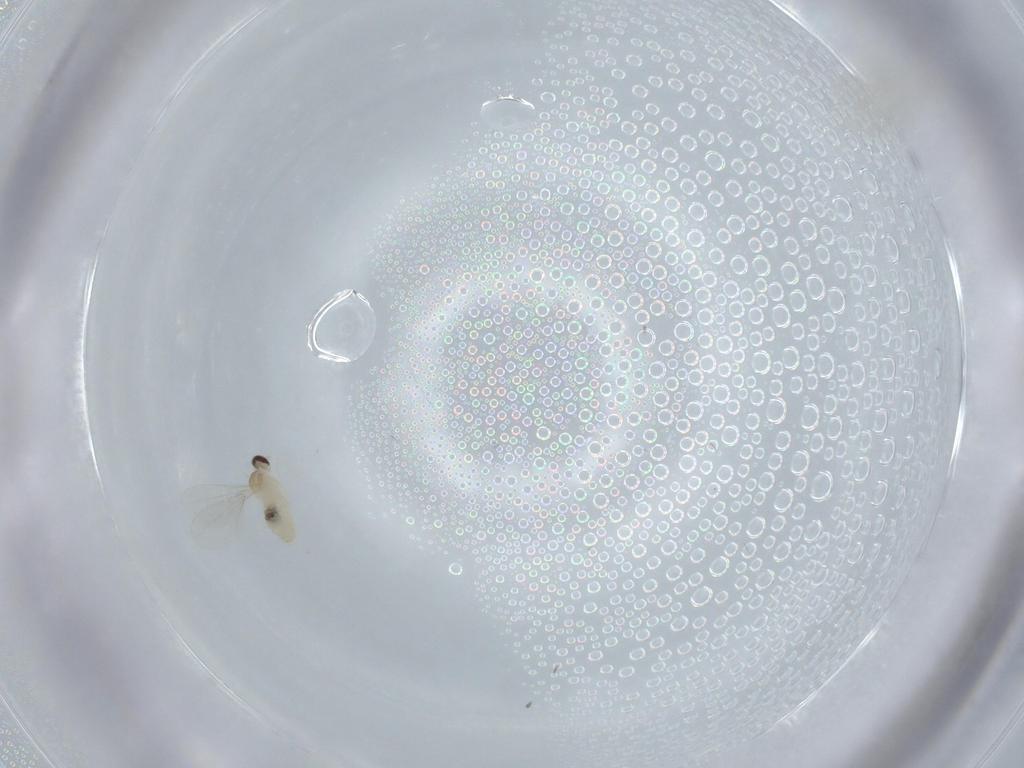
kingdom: Animalia
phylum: Arthropoda
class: Insecta
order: Diptera
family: Cecidomyiidae
